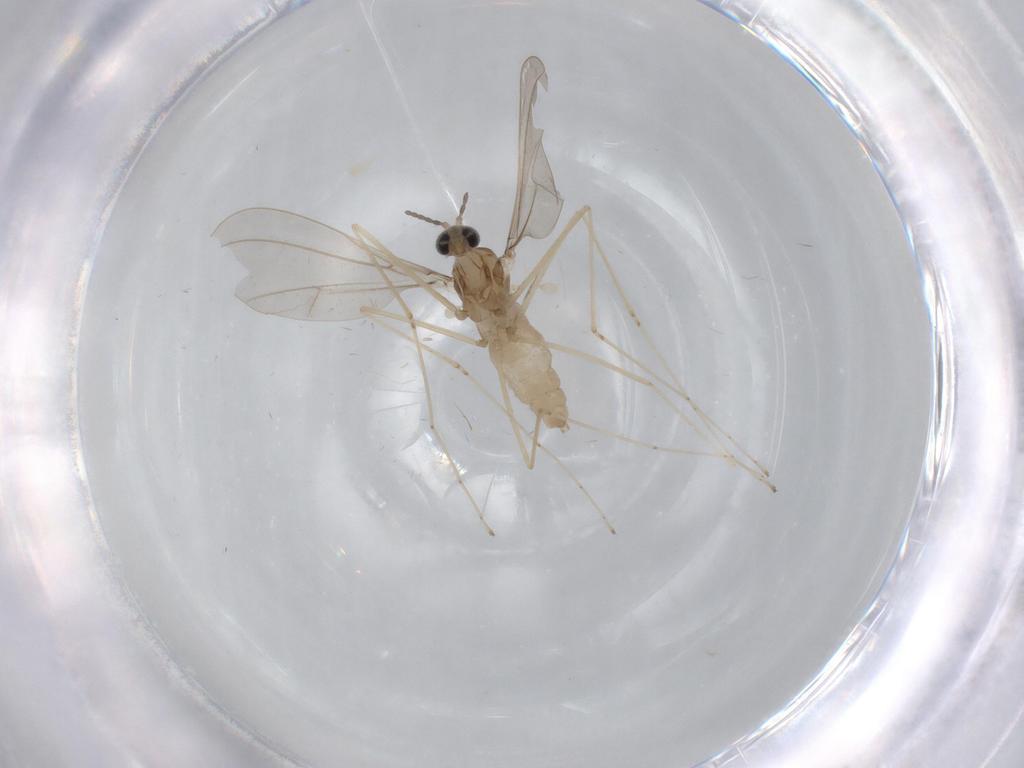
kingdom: Animalia
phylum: Arthropoda
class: Insecta
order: Diptera
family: Cecidomyiidae
